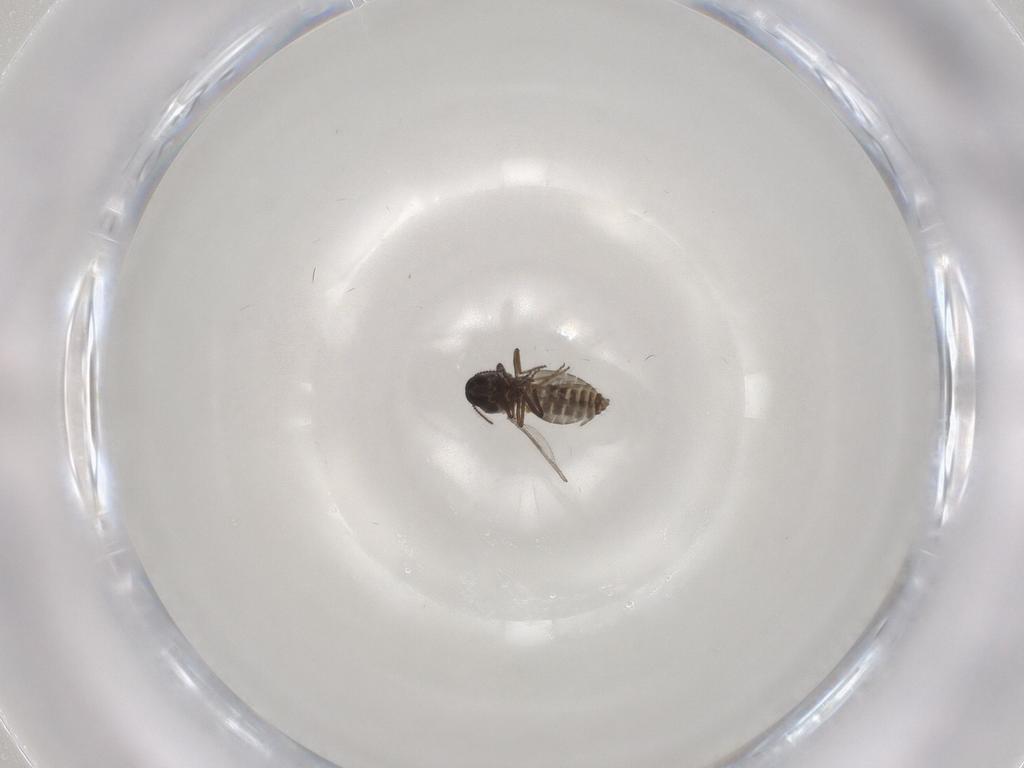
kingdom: Animalia
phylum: Arthropoda
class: Insecta
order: Diptera
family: Ceratopogonidae
